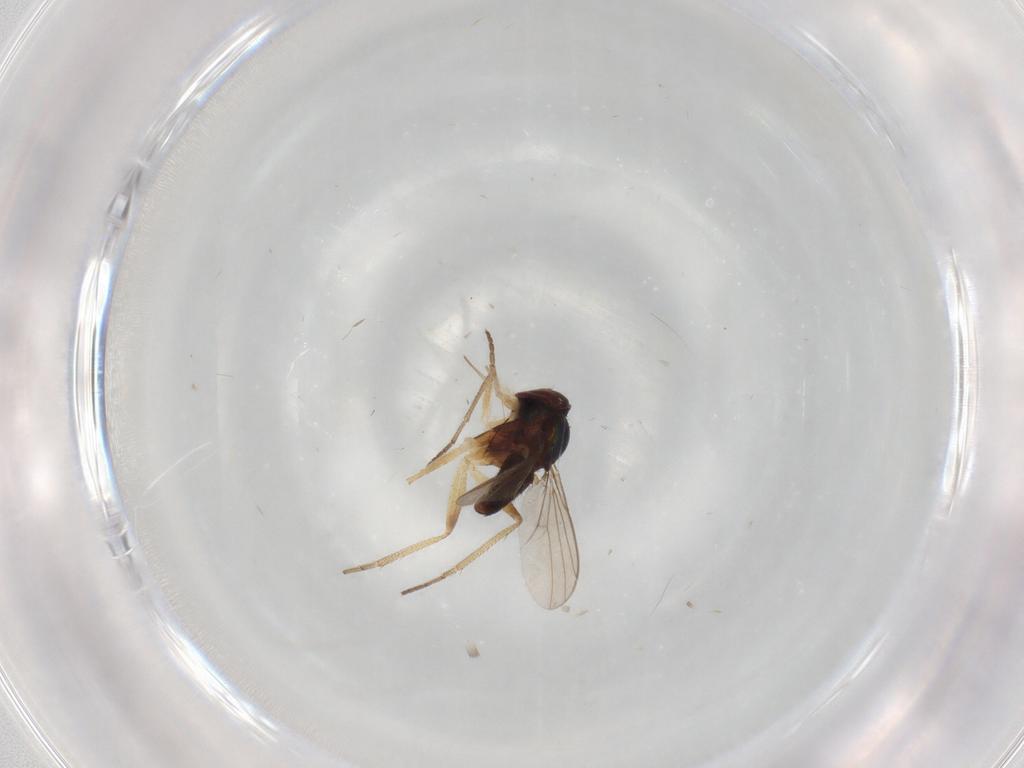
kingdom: Animalia
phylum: Arthropoda
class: Insecta
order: Diptera
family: Dolichopodidae
